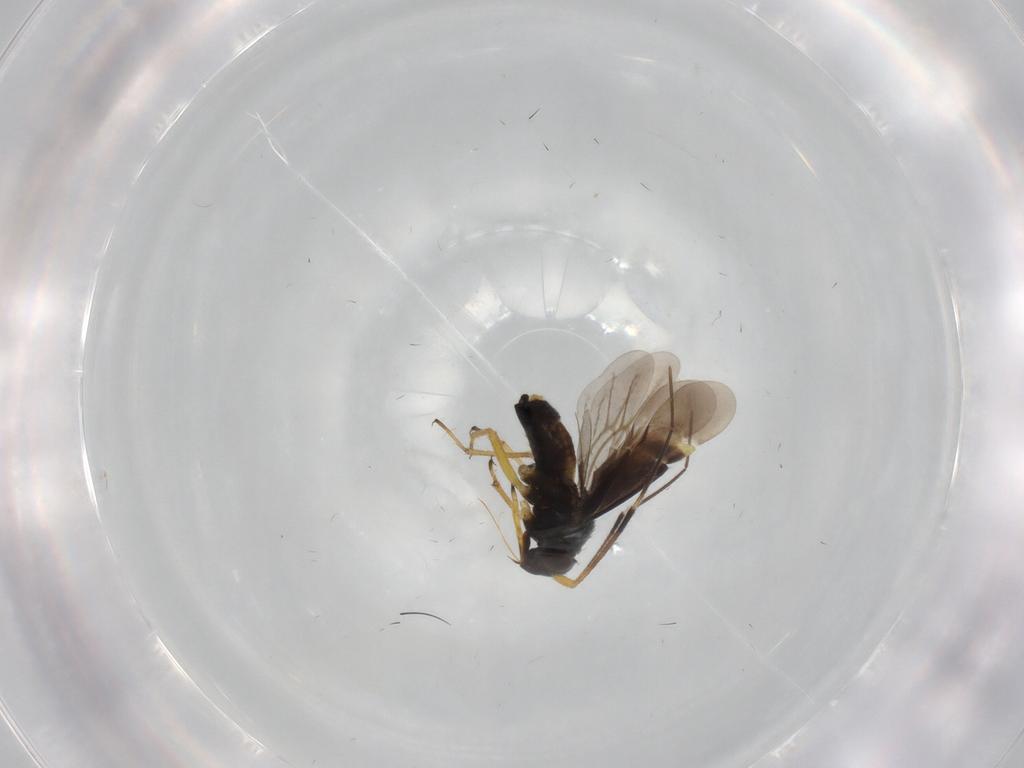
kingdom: Animalia
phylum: Arthropoda
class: Insecta
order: Hemiptera
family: Miridae
